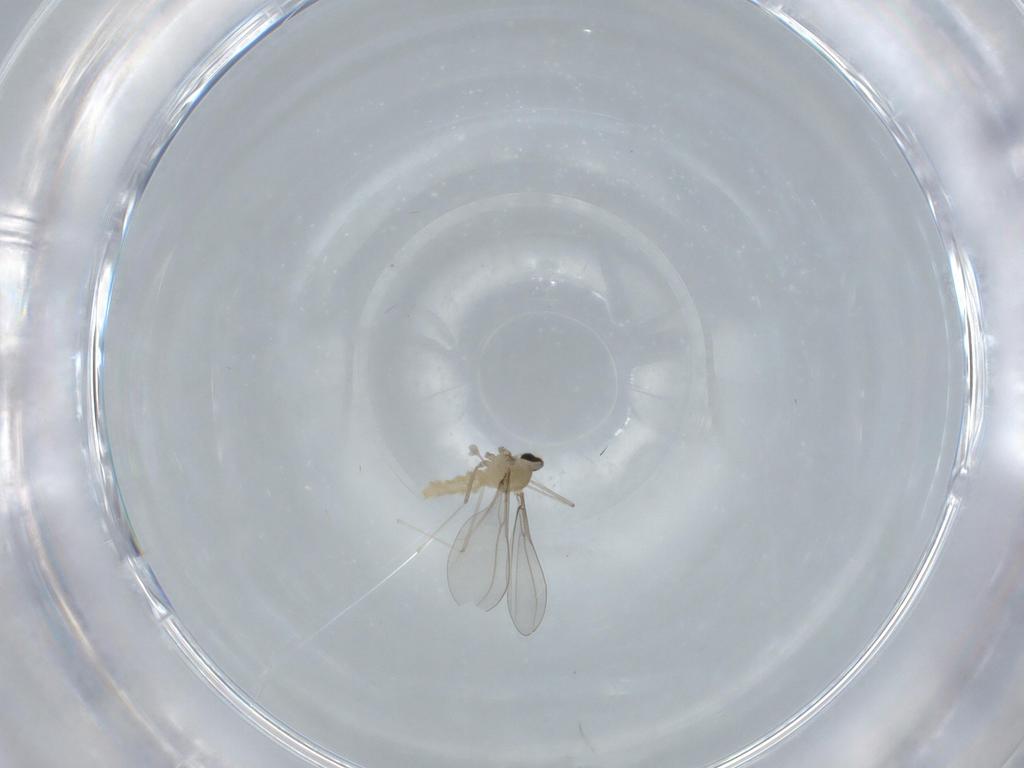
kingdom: Animalia
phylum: Arthropoda
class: Insecta
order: Diptera
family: Cecidomyiidae
